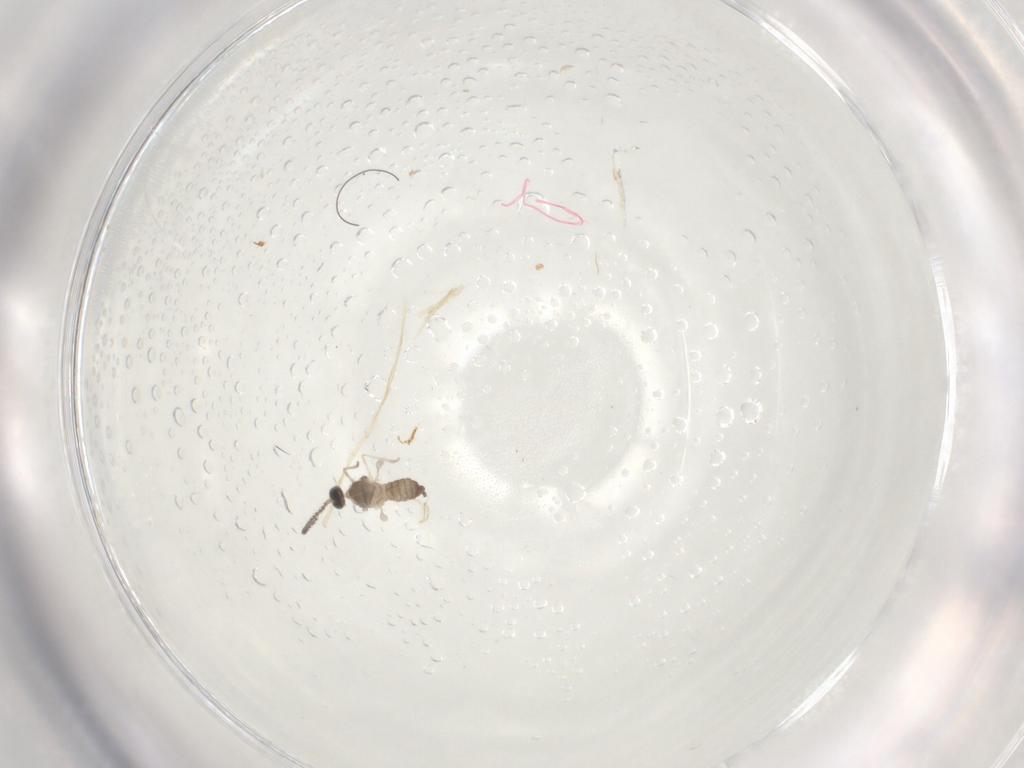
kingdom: Animalia
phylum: Arthropoda
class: Insecta
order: Diptera
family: Cecidomyiidae
